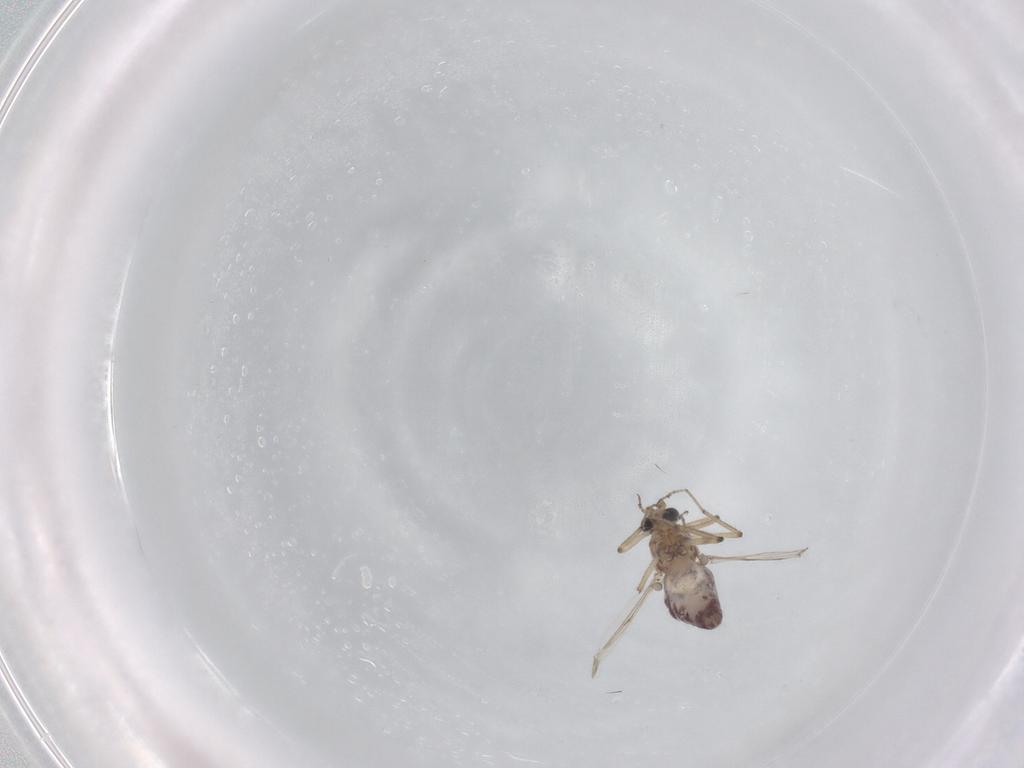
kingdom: Animalia
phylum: Arthropoda
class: Insecta
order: Diptera
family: Ceratopogonidae
